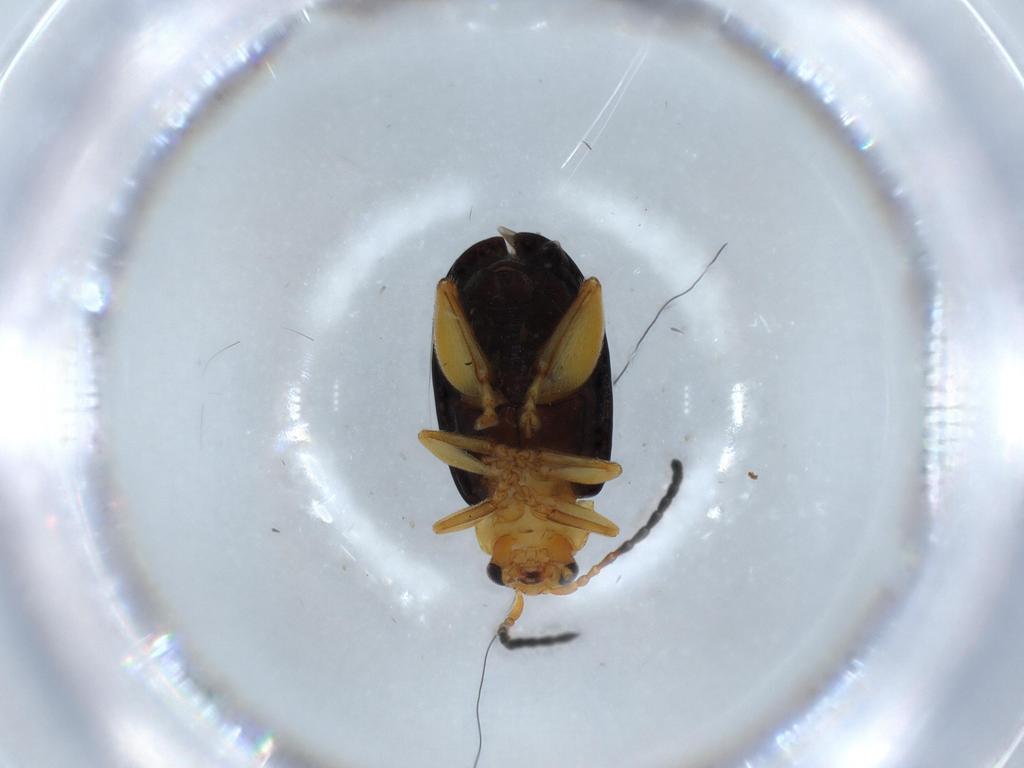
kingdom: Animalia
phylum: Arthropoda
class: Insecta
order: Coleoptera
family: Chrysomelidae
